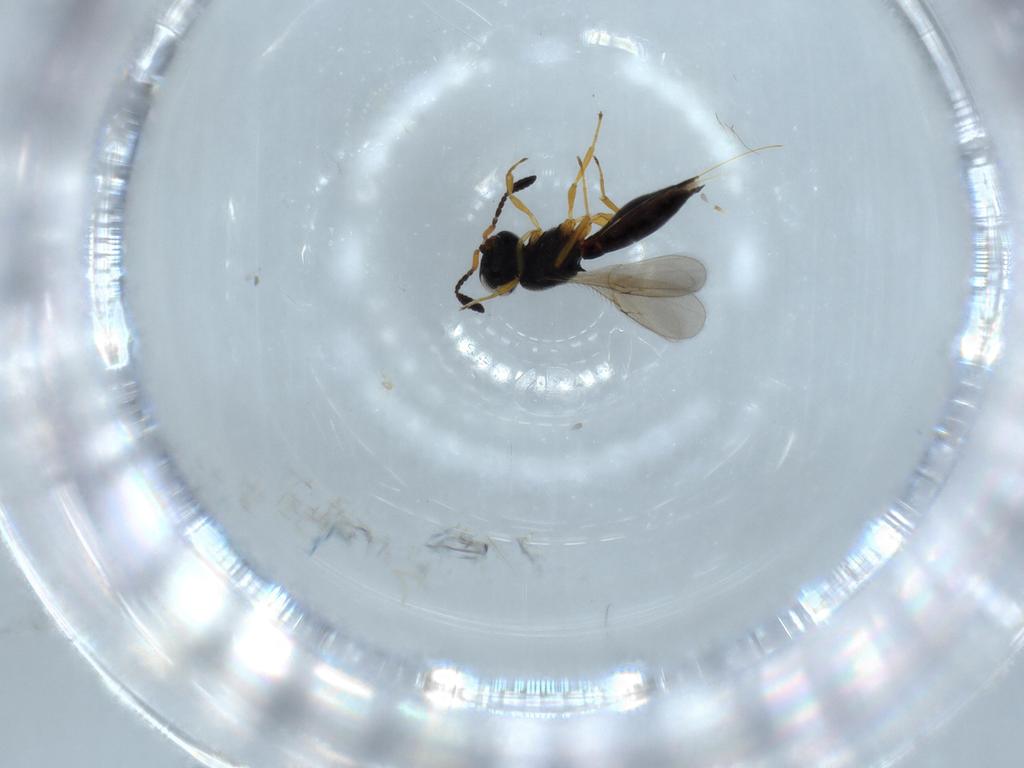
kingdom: Animalia
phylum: Arthropoda
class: Insecta
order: Hymenoptera
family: Scelionidae
